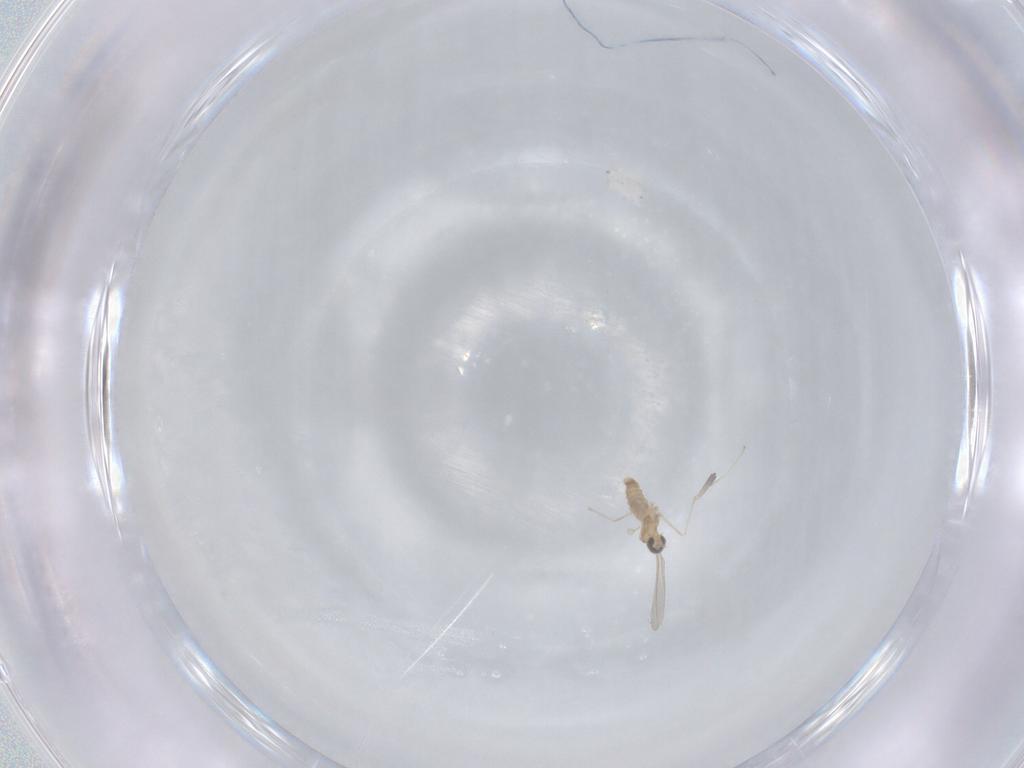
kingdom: Animalia
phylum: Arthropoda
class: Insecta
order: Diptera
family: Cecidomyiidae
